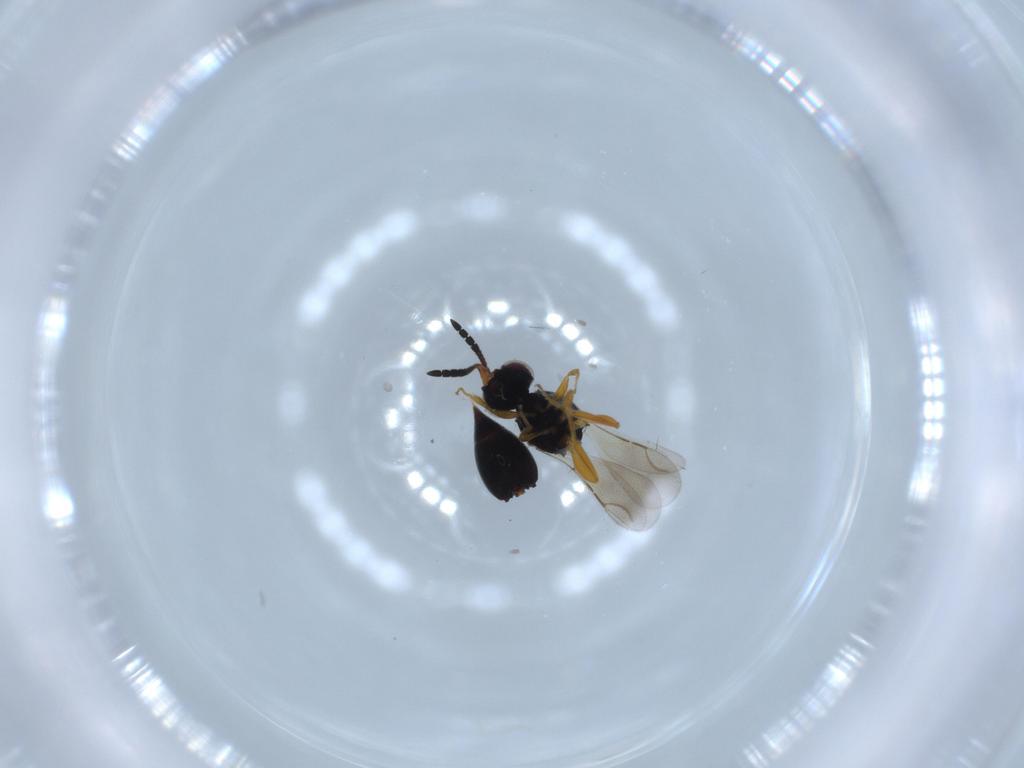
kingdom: Animalia
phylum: Arthropoda
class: Insecta
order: Hymenoptera
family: Ceraphronidae
